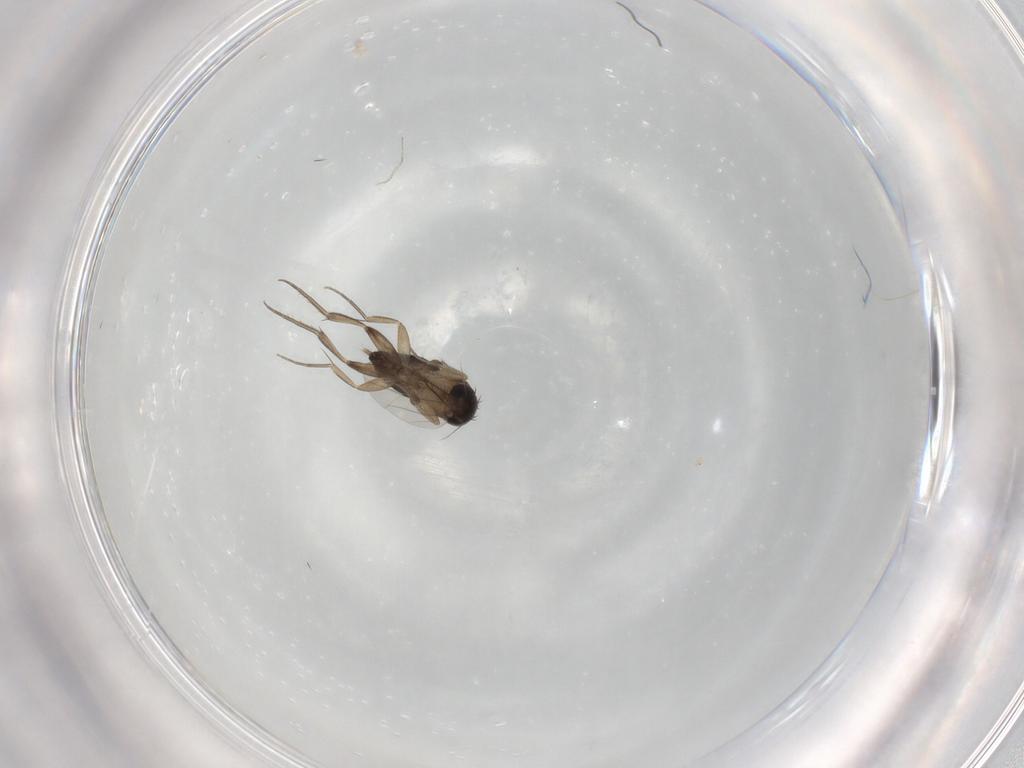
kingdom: Animalia
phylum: Arthropoda
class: Insecta
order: Diptera
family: Phoridae
